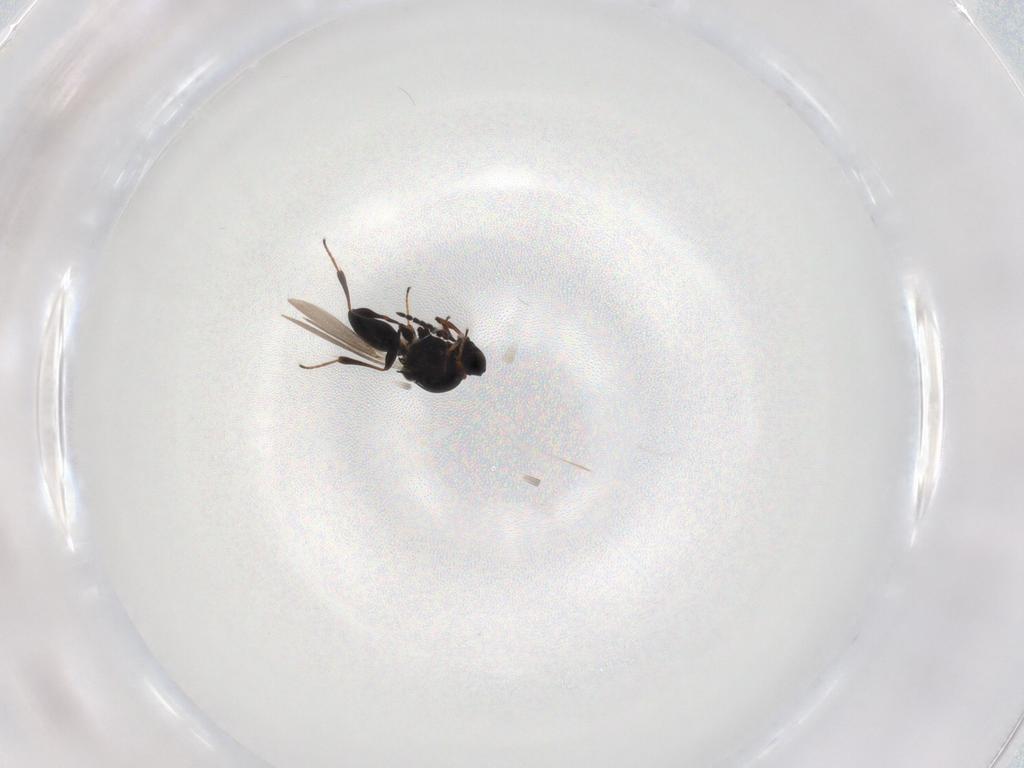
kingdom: Animalia
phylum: Arthropoda
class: Insecta
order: Hymenoptera
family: Platygastridae
